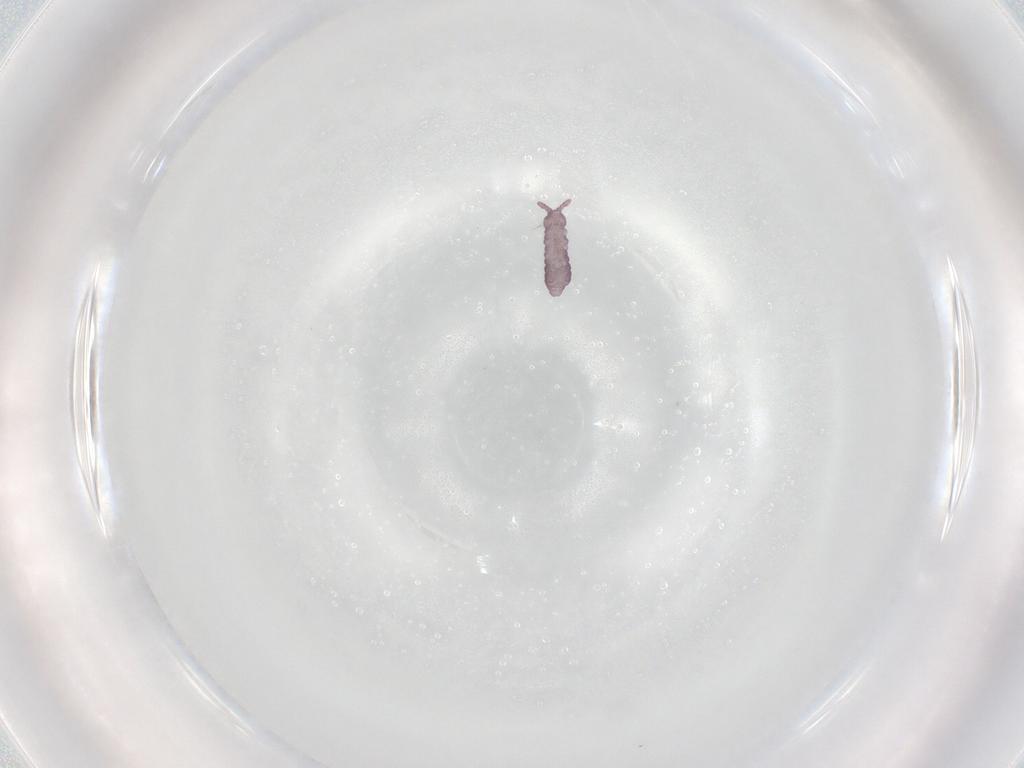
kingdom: Animalia
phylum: Arthropoda
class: Collembola
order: Poduromorpha
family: Hypogastruridae
